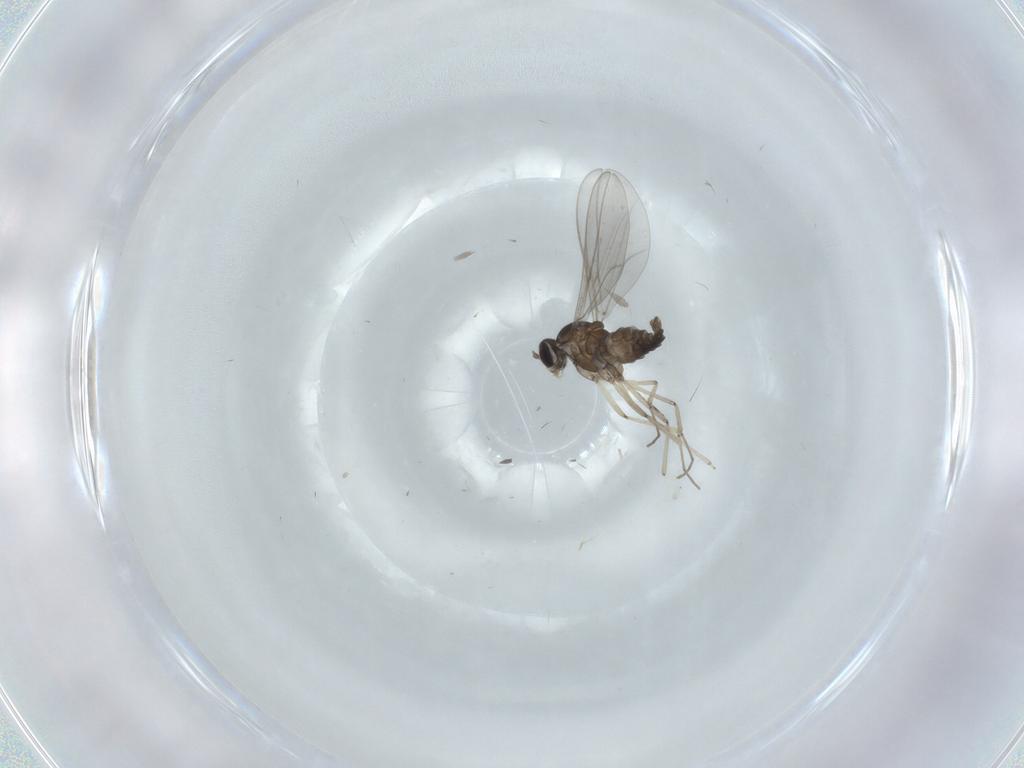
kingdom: Animalia
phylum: Arthropoda
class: Insecta
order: Diptera
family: Cecidomyiidae
